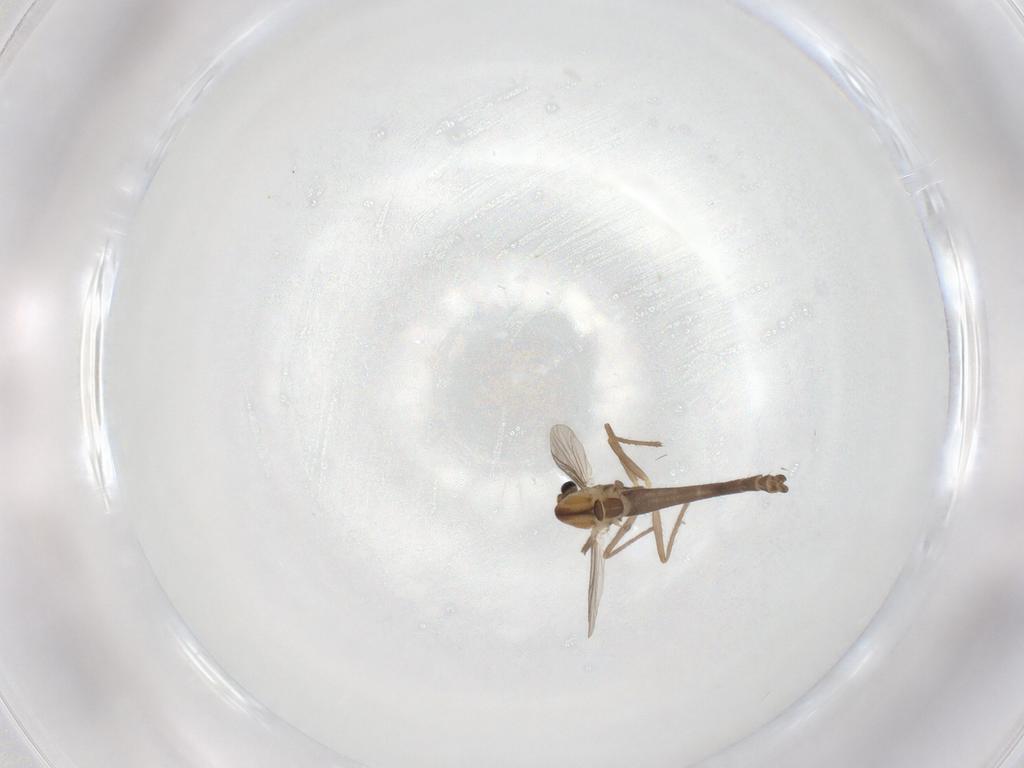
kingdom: Animalia
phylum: Arthropoda
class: Insecta
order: Diptera
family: Chironomidae
